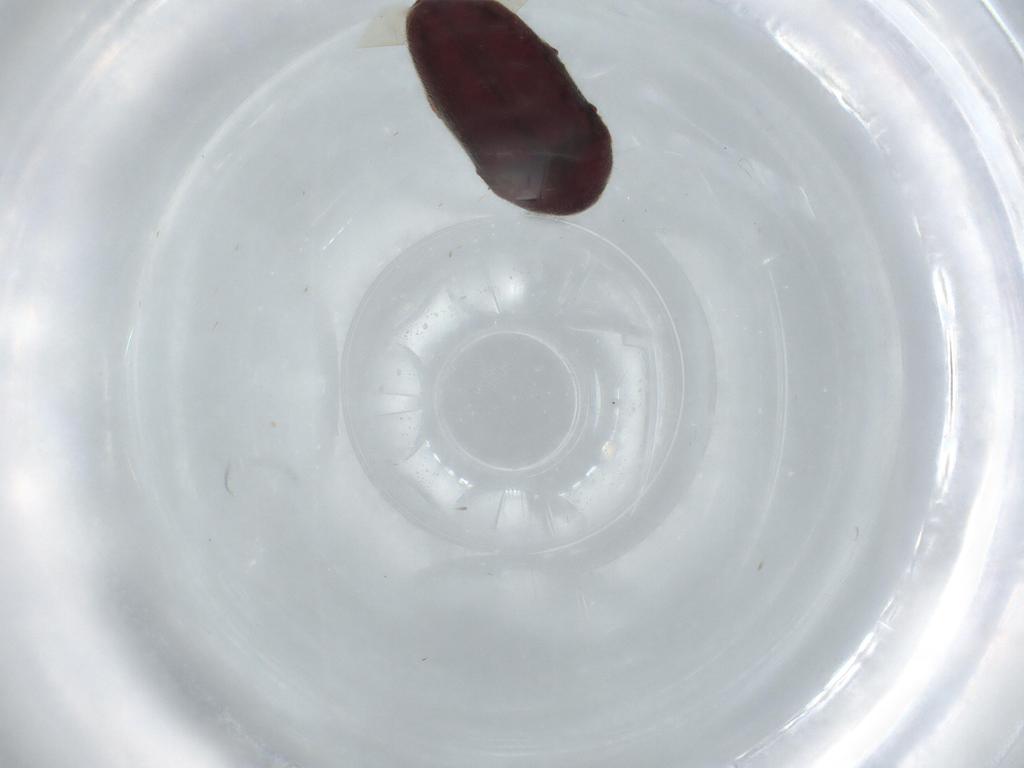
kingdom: Animalia
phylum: Arthropoda
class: Insecta
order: Coleoptera
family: Throscidae
